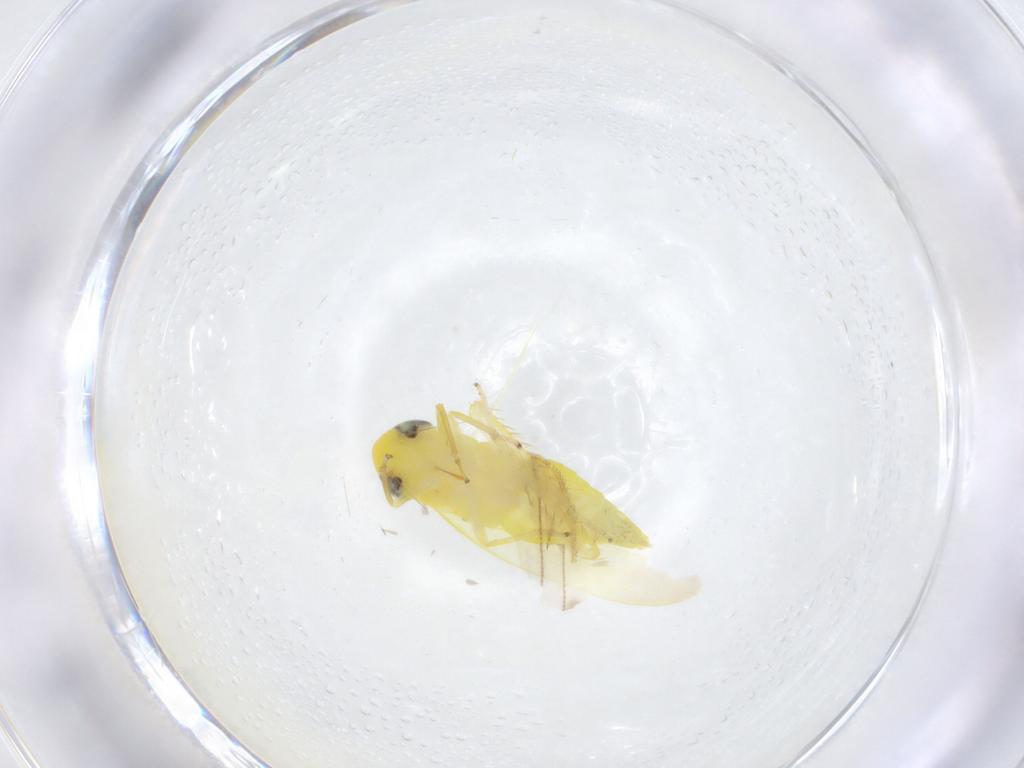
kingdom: Animalia
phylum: Arthropoda
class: Insecta
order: Hemiptera
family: Cicadellidae
